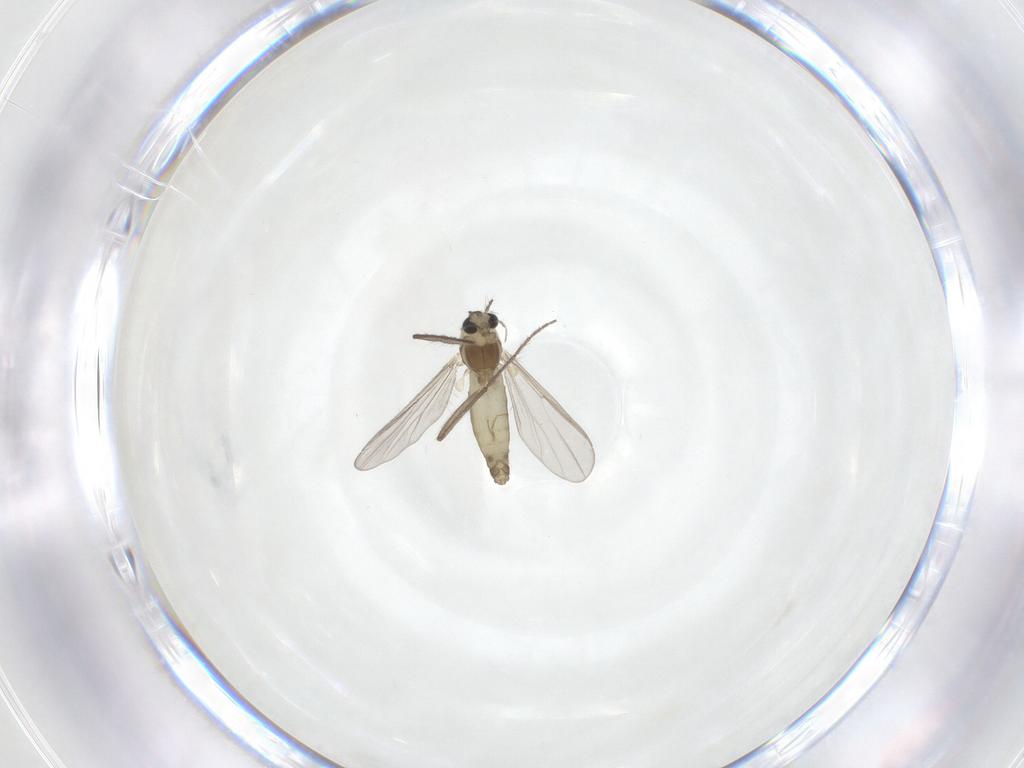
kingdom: Animalia
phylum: Arthropoda
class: Insecta
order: Diptera
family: Chironomidae
